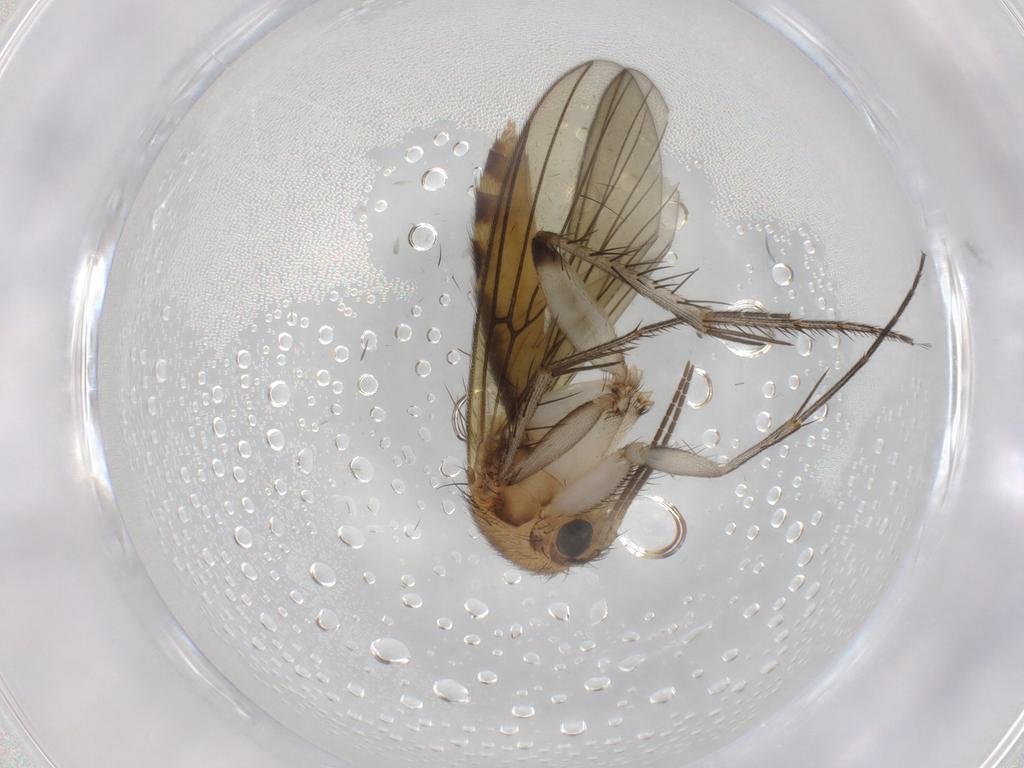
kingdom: Animalia
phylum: Arthropoda
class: Insecta
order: Diptera
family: Mycetophilidae
